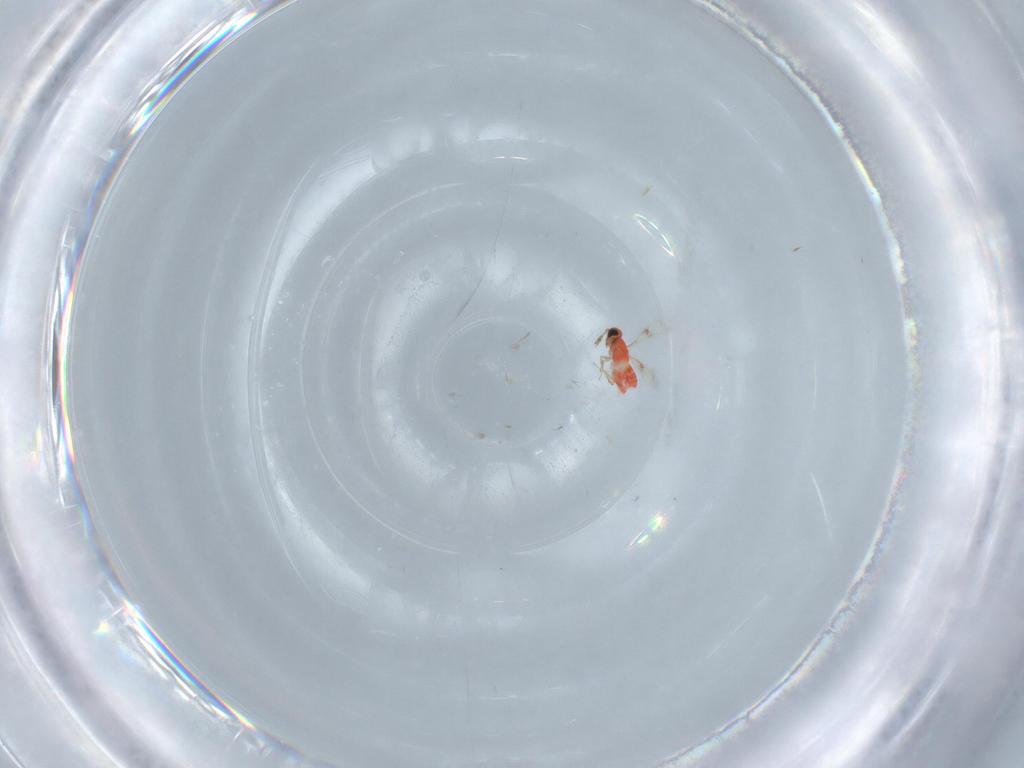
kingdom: Animalia
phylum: Arthropoda
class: Insecta
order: Hymenoptera
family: Trichogrammatidae
